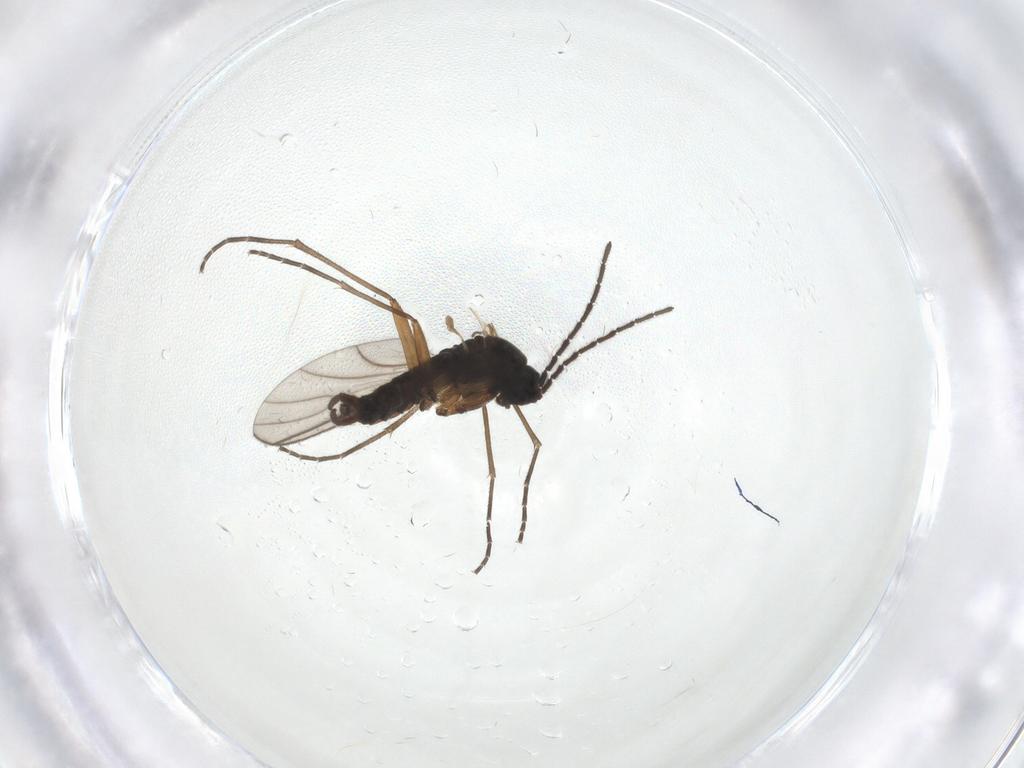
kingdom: Animalia
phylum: Arthropoda
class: Insecta
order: Diptera
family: Sciaridae
